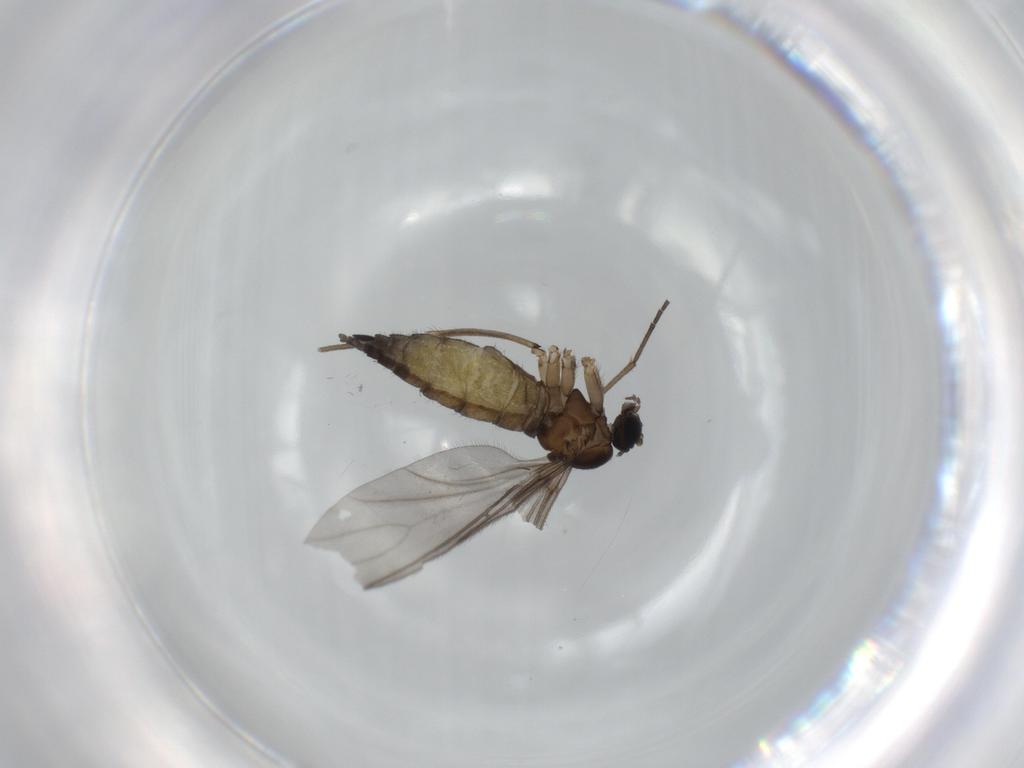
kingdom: Animalia
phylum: Arthropoda
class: Insecta
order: Diptera
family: Sciaridae
